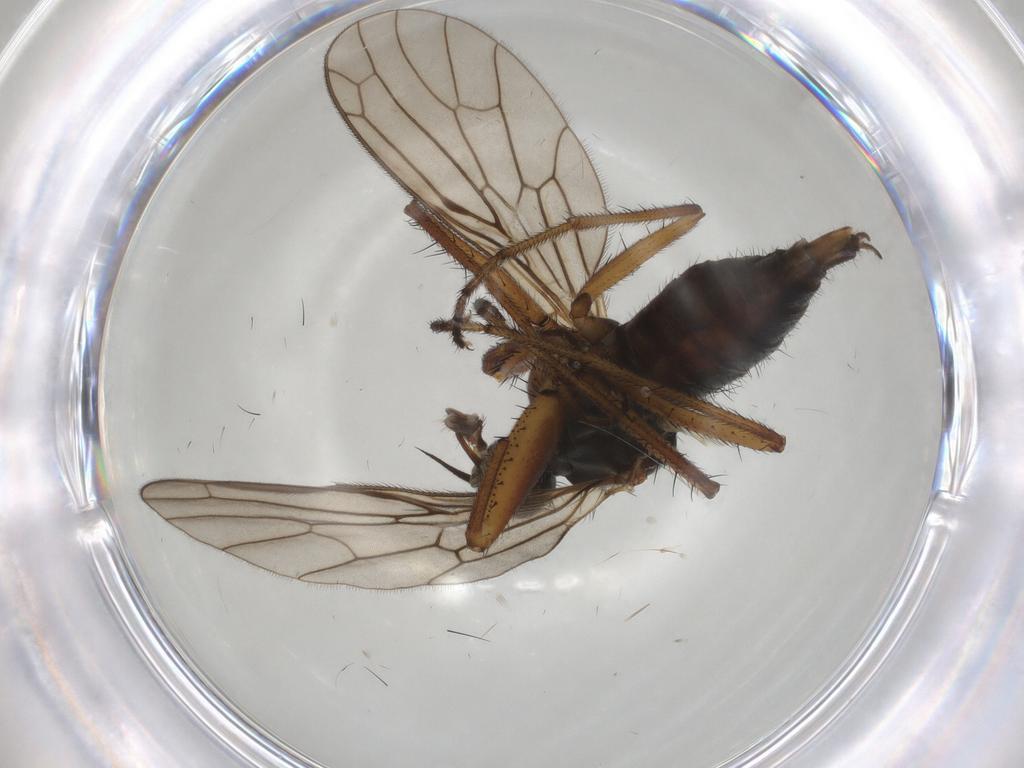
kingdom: Animalia
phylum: Arthropoda
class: Insecta
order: Diptera
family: Empididae
